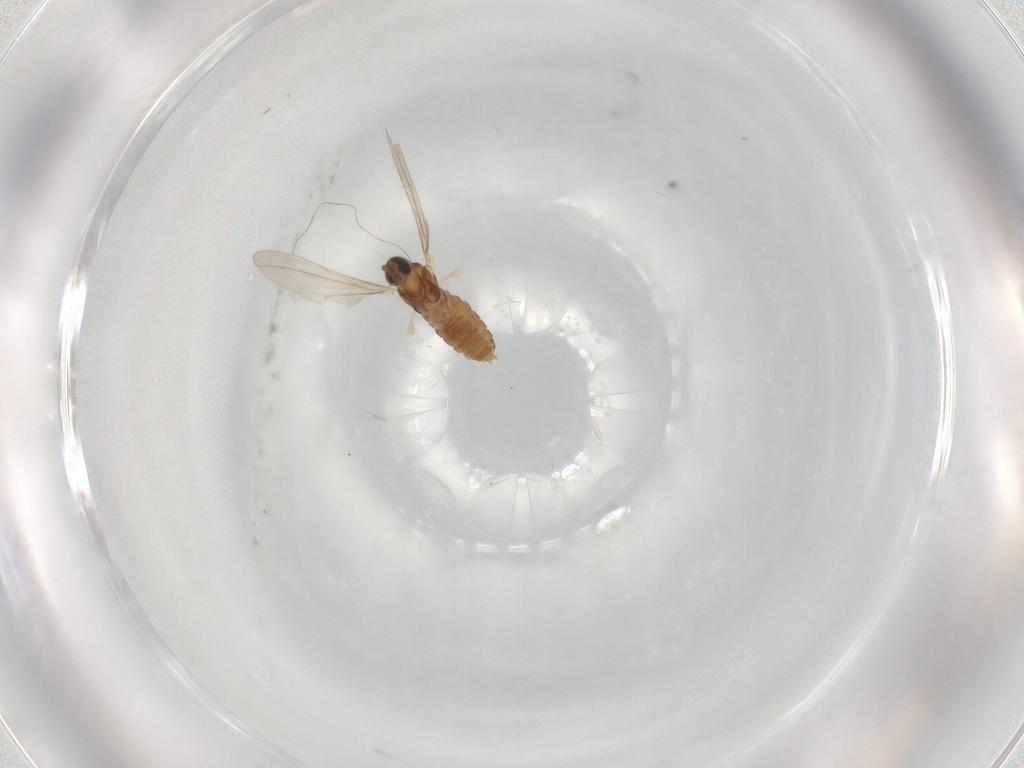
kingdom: Animalia
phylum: Arthropoda
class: Insecta
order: Diptera
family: Cecidomyiidae
